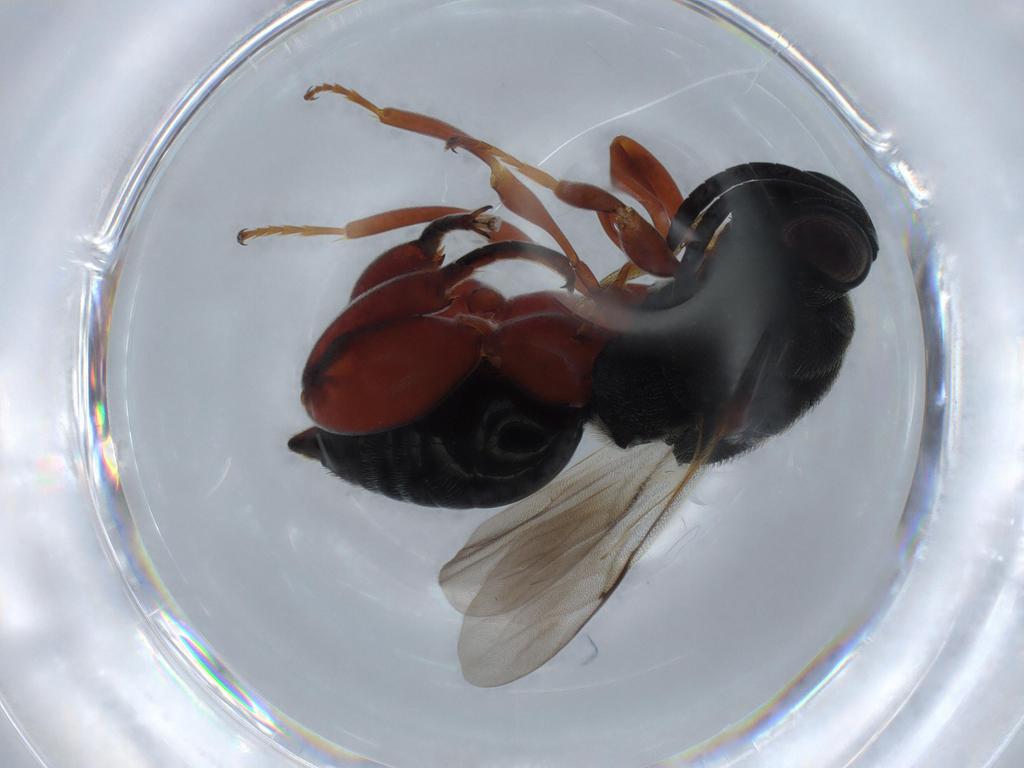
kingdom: Animalia
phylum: Arthropoda
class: Insecta
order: Hymenoptera
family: Chalcididae
